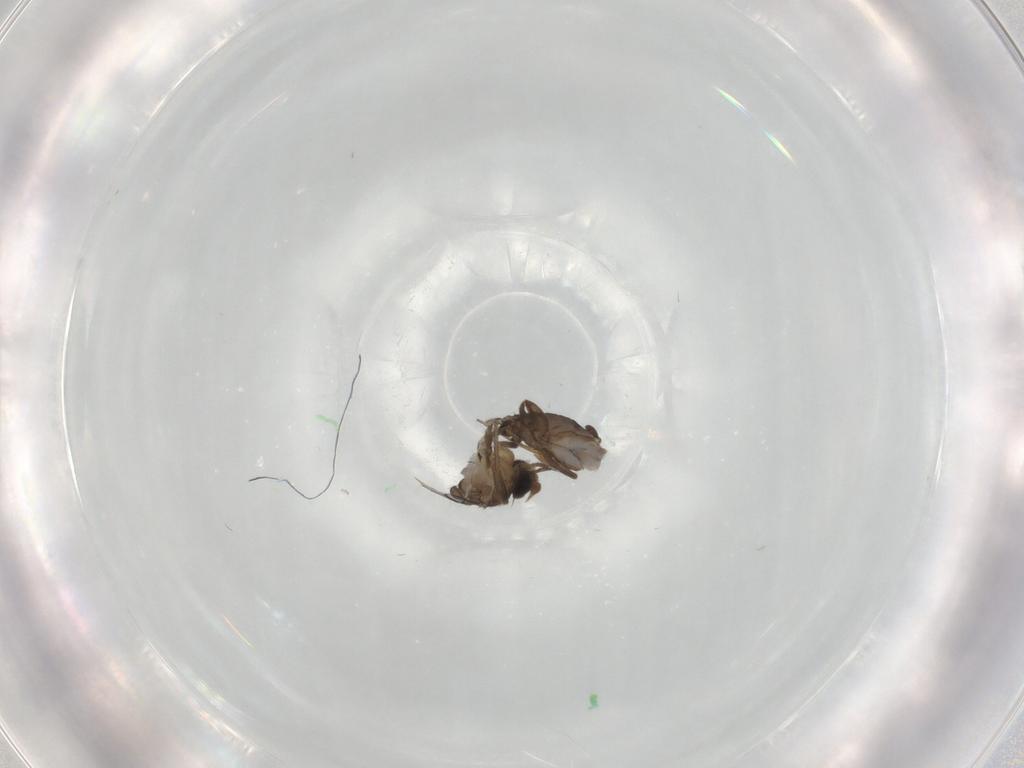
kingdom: Animalia
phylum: Arthropoda
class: Insecta
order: Diptera
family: Phoridae
